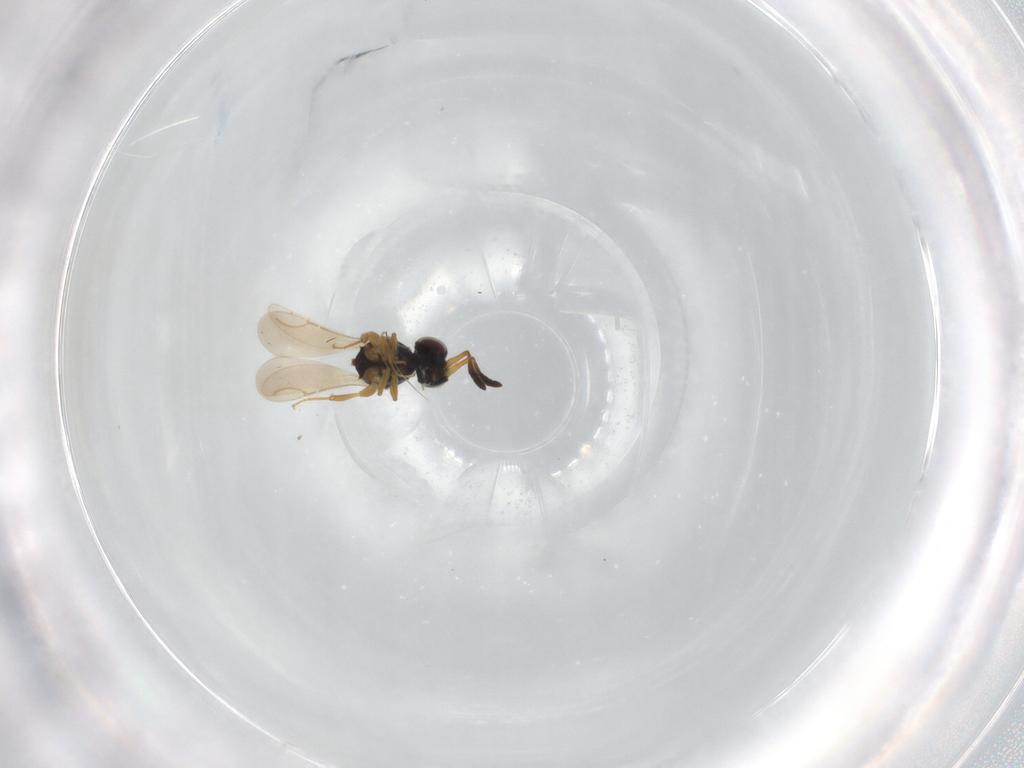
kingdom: Animalia
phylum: Arthropoda
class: Insecta
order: Hymenoptera
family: Eulophidae
